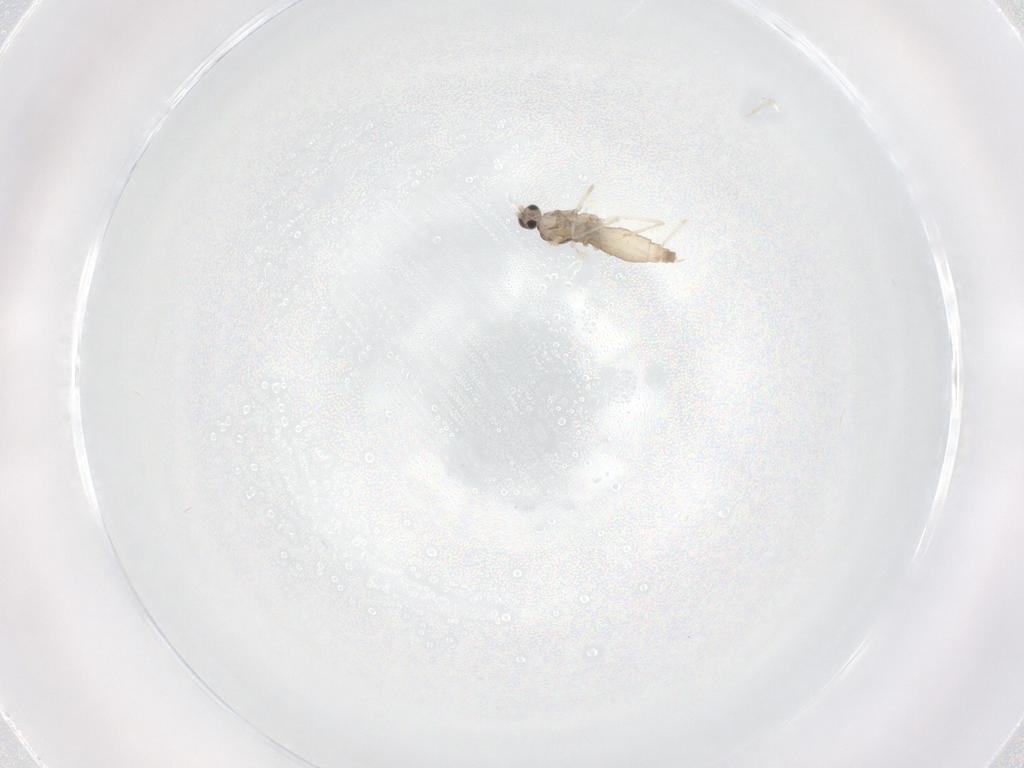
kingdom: Animalia
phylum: Arthropoda
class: Insecta
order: Diptera
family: Cecidomyiidae
